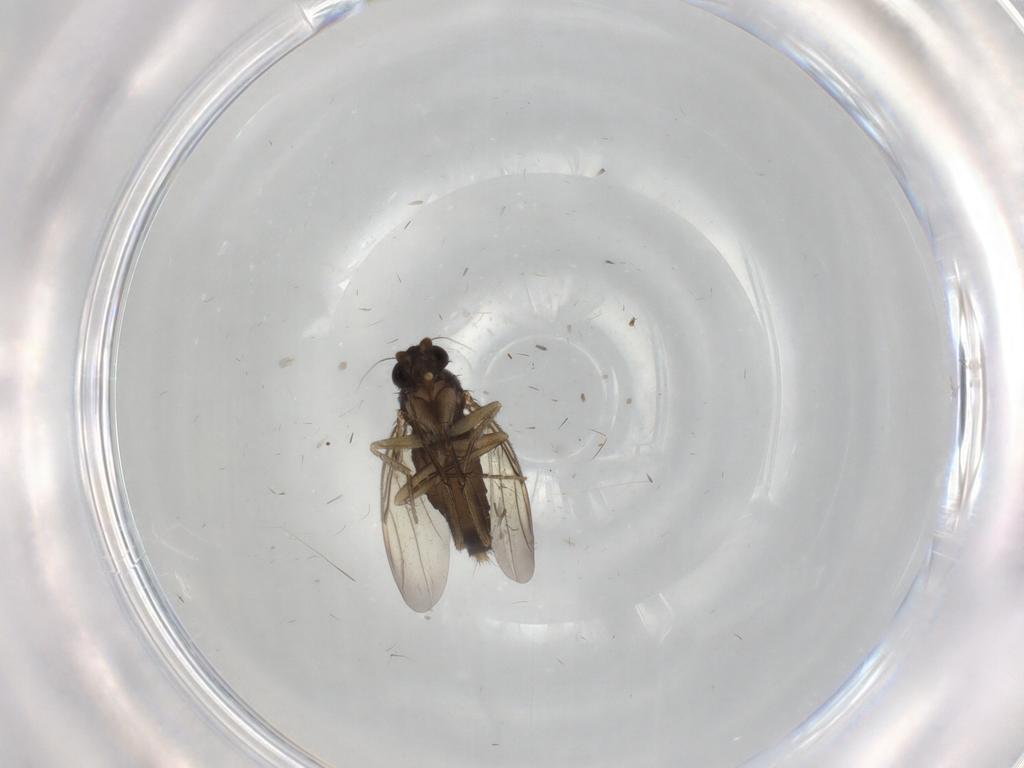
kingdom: Animalia
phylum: Arthropoda
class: Insecta
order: Diptera
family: Phoridae
